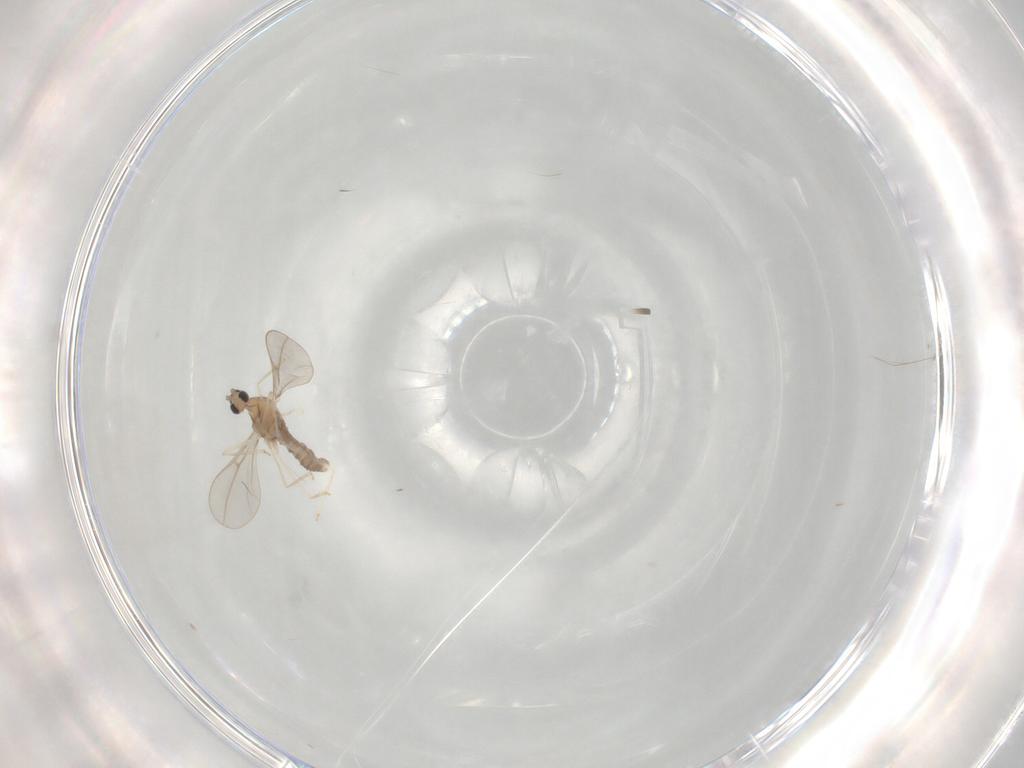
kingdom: Animalia
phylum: Arthropoda
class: Insecta
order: Diptera
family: Cecidomyiidae
